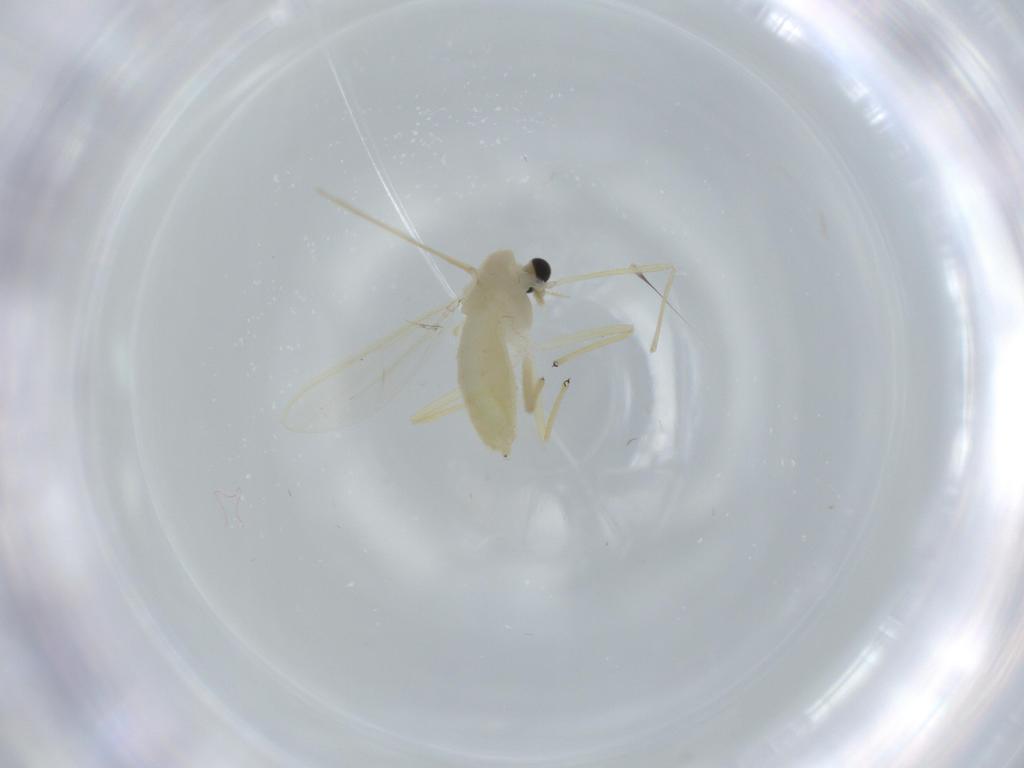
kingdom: Animalia
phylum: Arthropoda
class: Insecta
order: Diptera
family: Chironomidae
